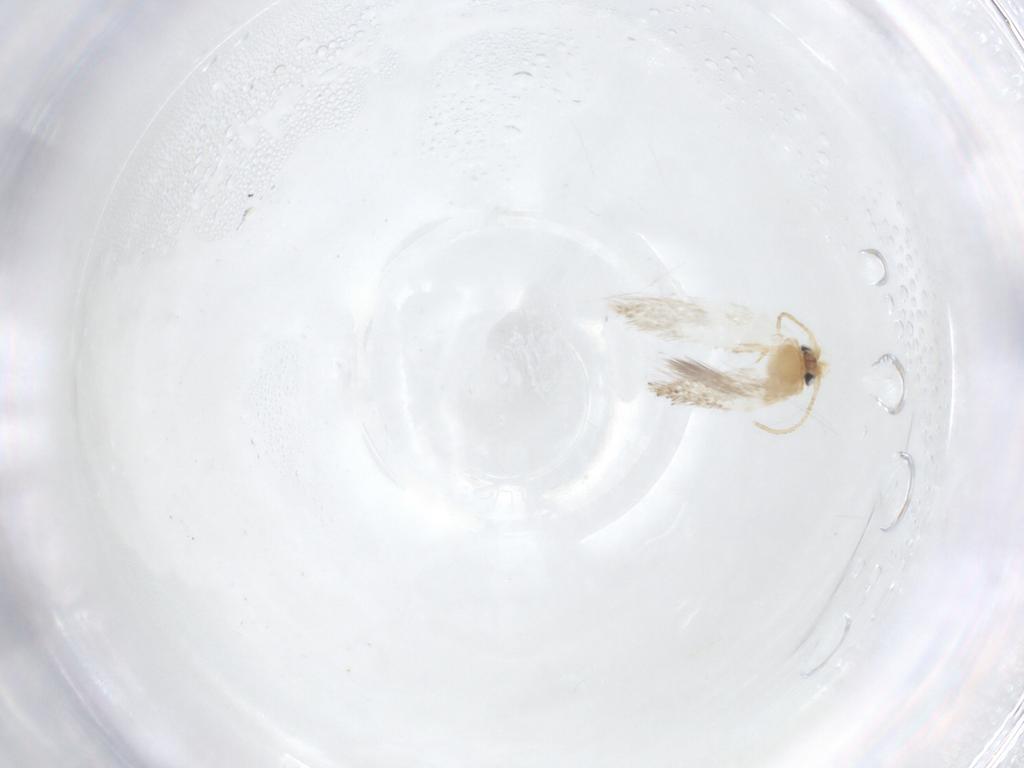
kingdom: Animalia
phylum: Arthropoda
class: Insecta
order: Lepidoptera
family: Nepticulidae
